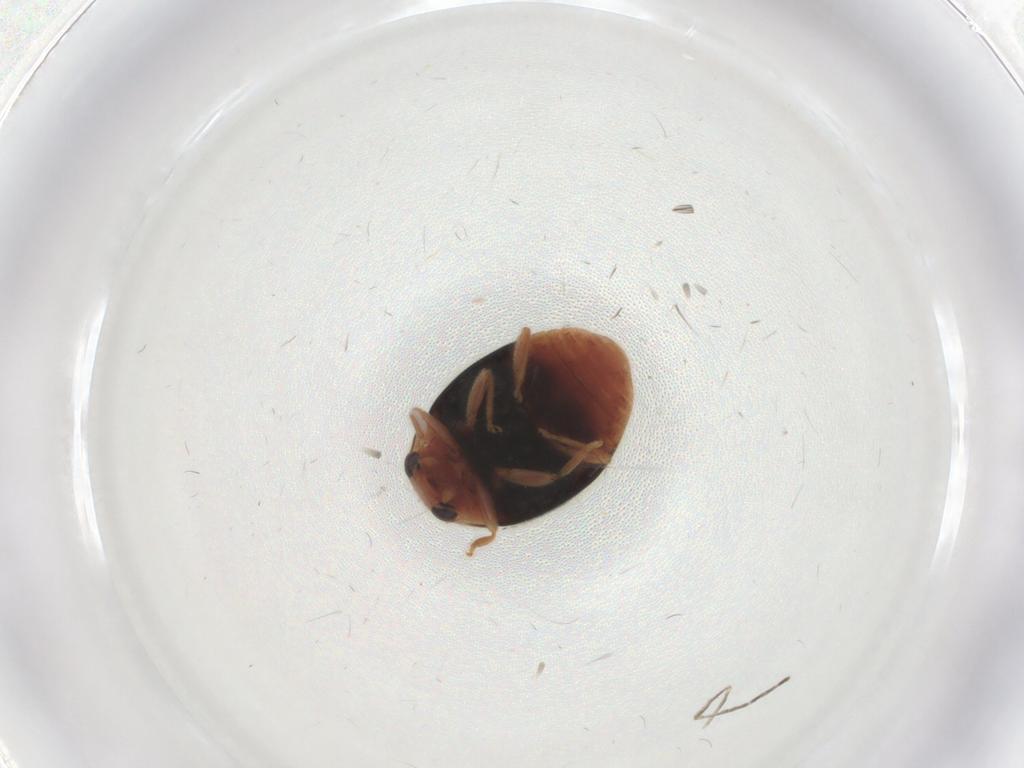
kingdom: Animalia
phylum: Arthropoda
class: Insecta
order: Coleoptera
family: Coccinellidae
